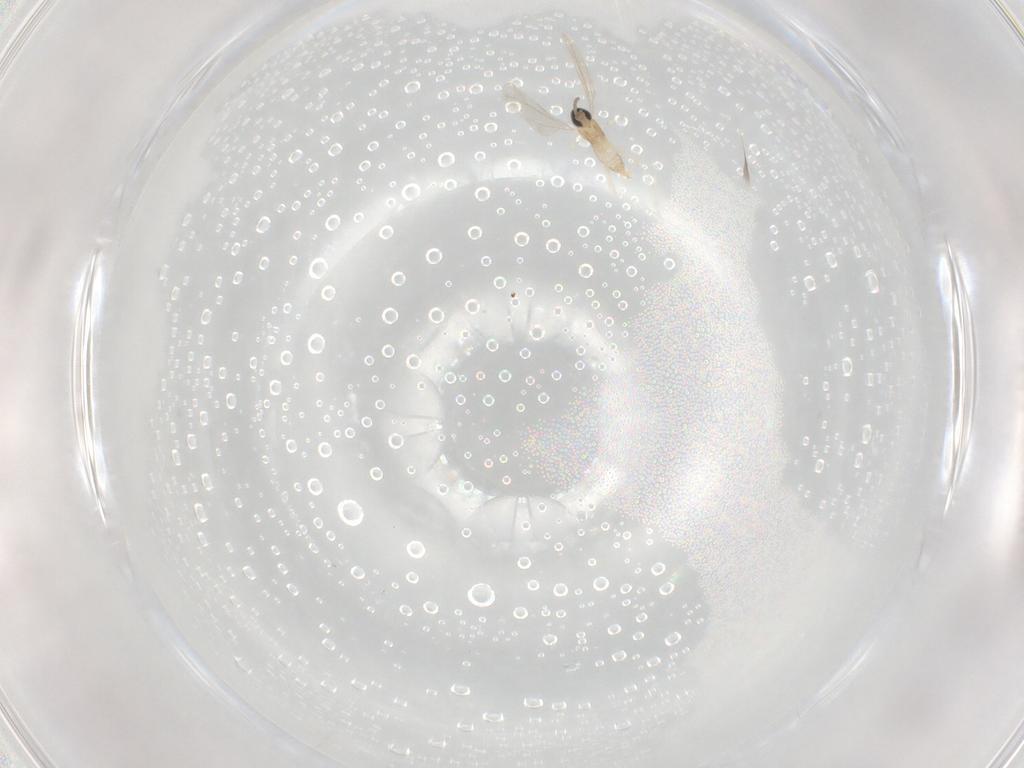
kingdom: Animalia
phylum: Arthropoda
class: Insecta
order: Diptera
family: Cecidomyiidae
